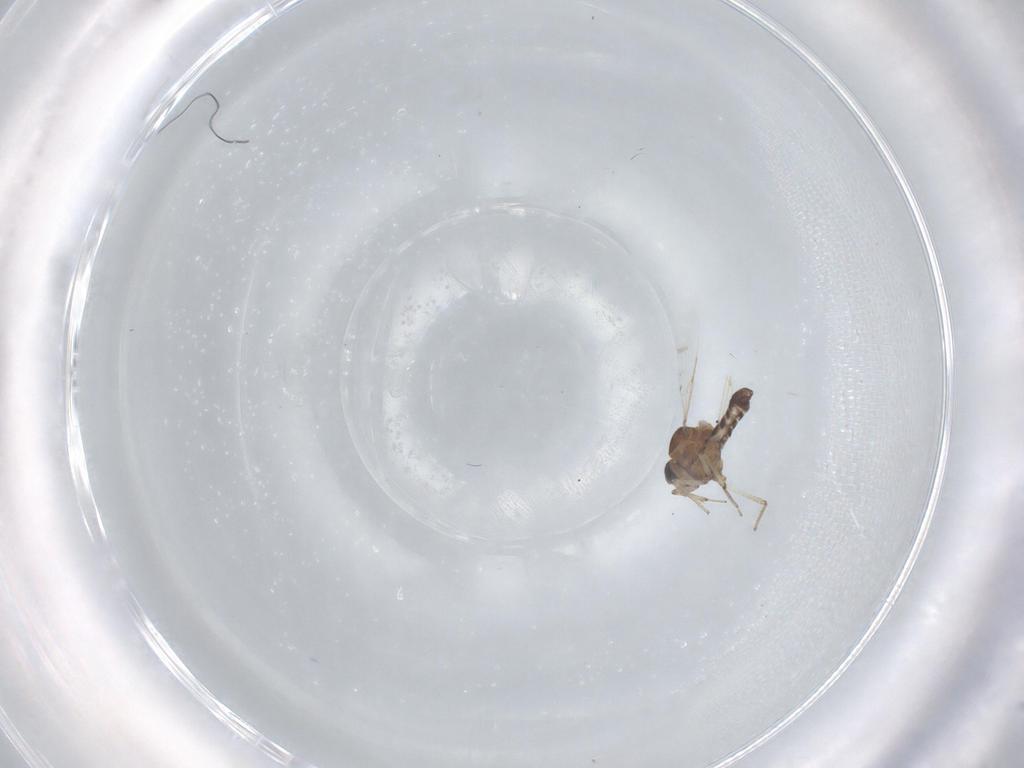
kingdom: Animalia
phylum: Arthropoda
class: Insecta
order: Diptera
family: Ceratopogonidae
